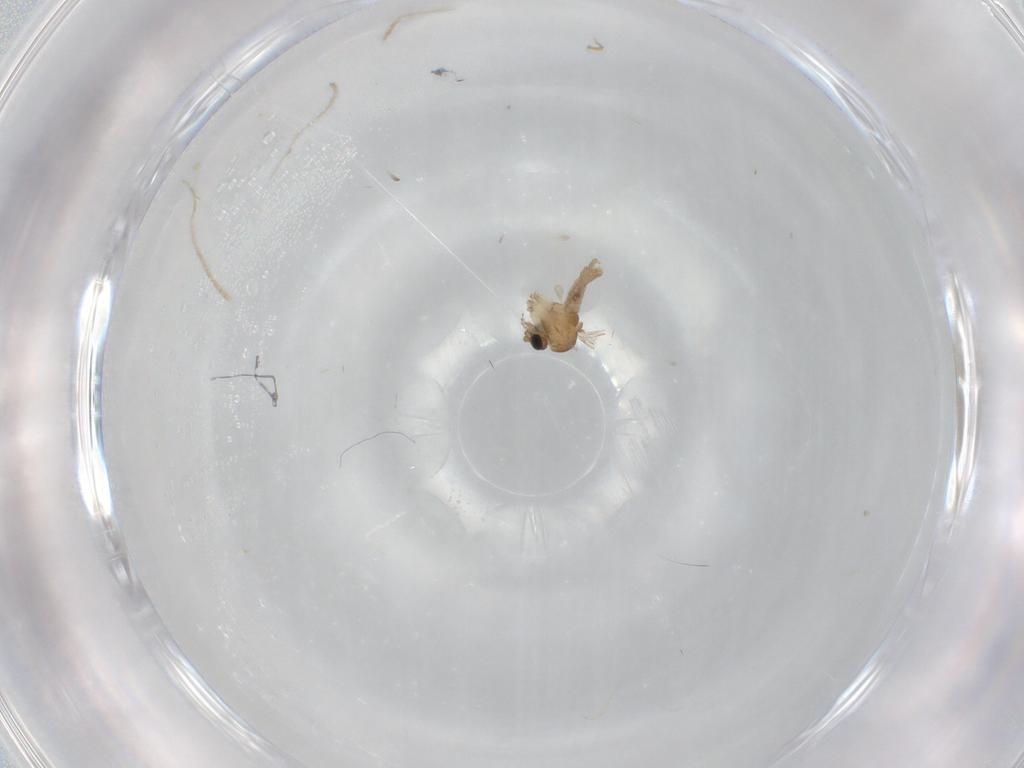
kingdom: Animalia
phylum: Arthropoda
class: Insecta
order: Diptera
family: Psychodidae
